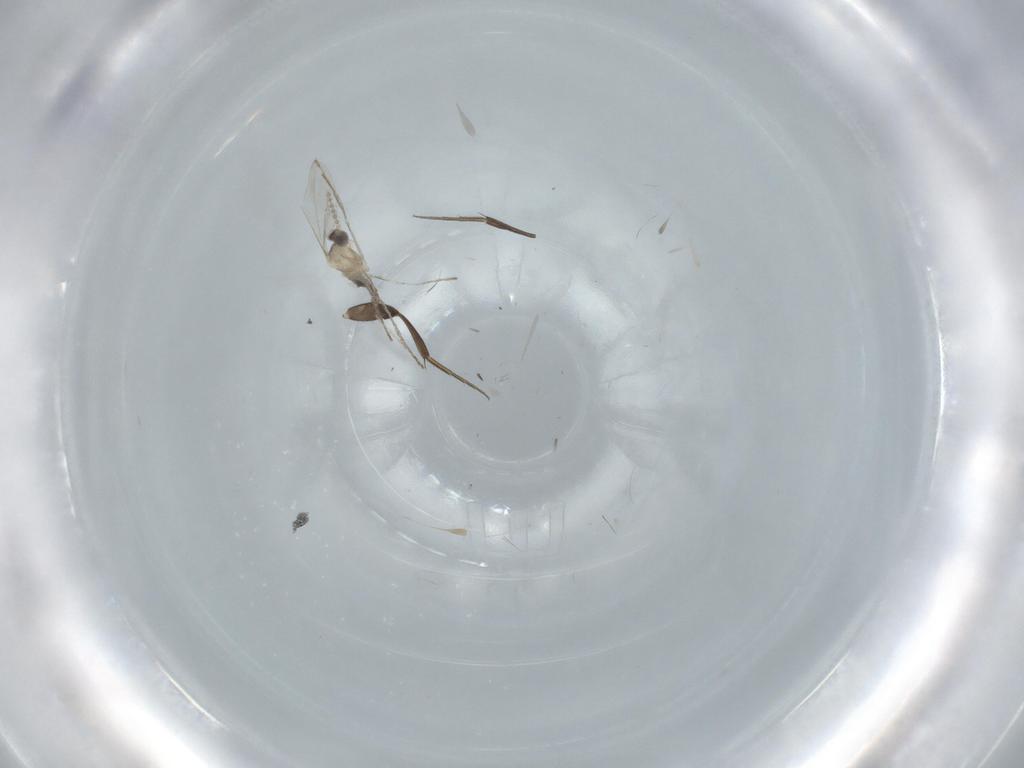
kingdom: Animalia
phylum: Arthropoda
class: Insecta
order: Diptera
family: Cecidomyiidae
